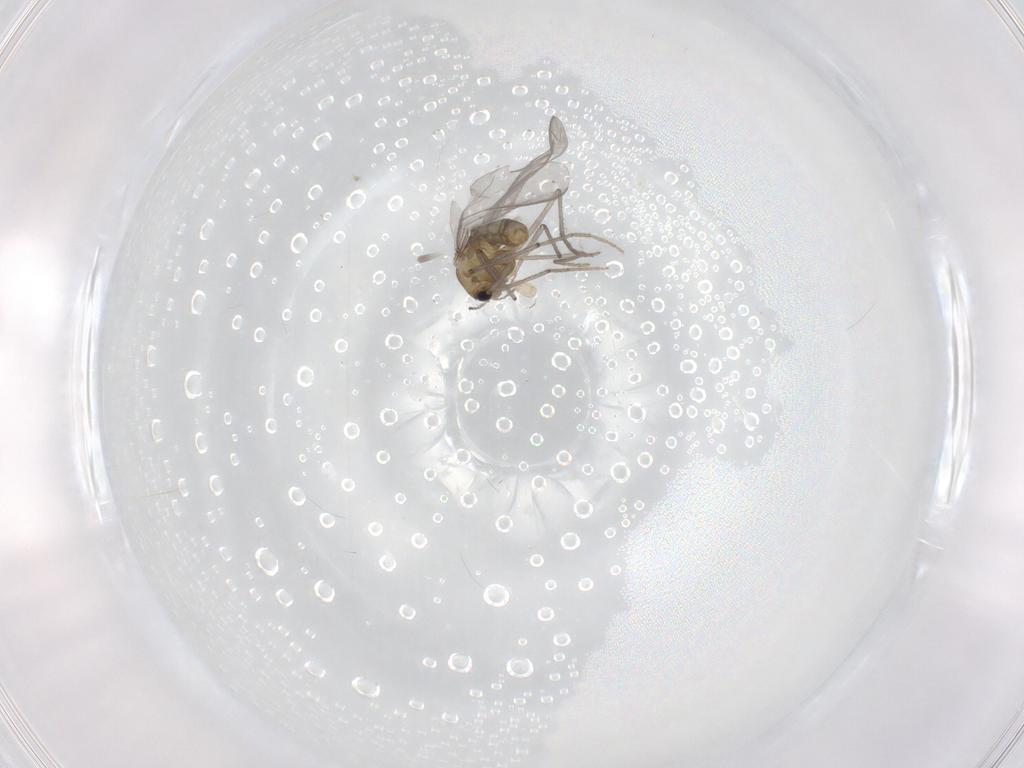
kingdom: Animalia
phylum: Arthropoda
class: Insecta
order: Diptera
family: Chironomidae
